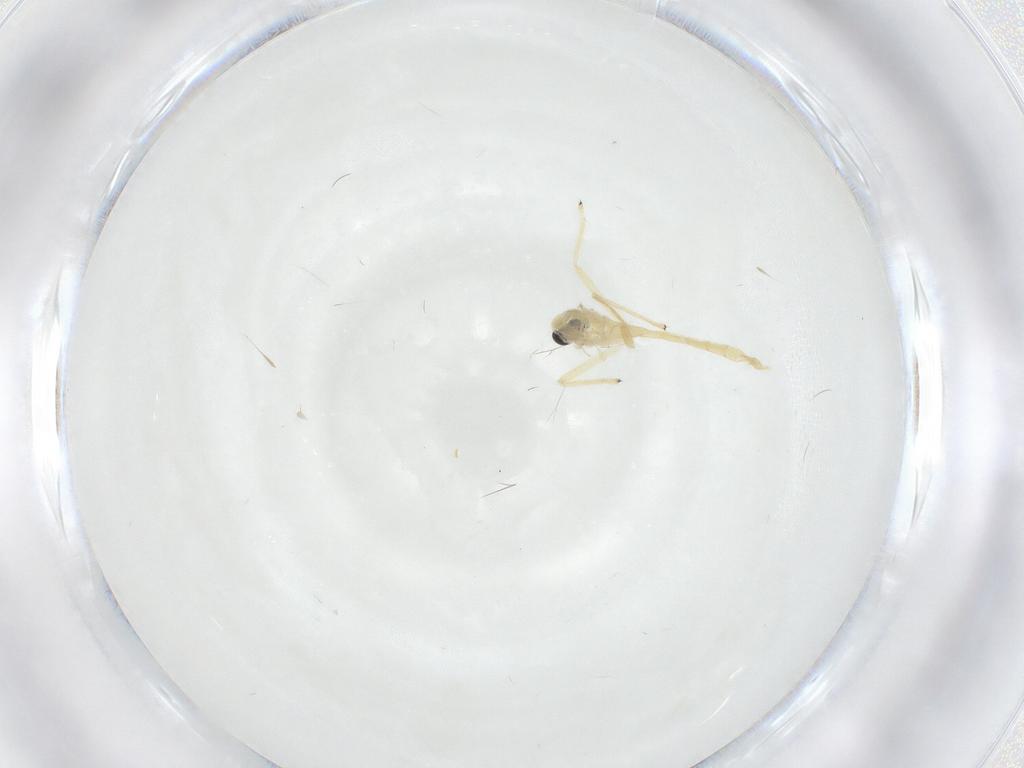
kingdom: Animalia
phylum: Arthropoda
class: Insecta
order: Diptera
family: Chironomidae
